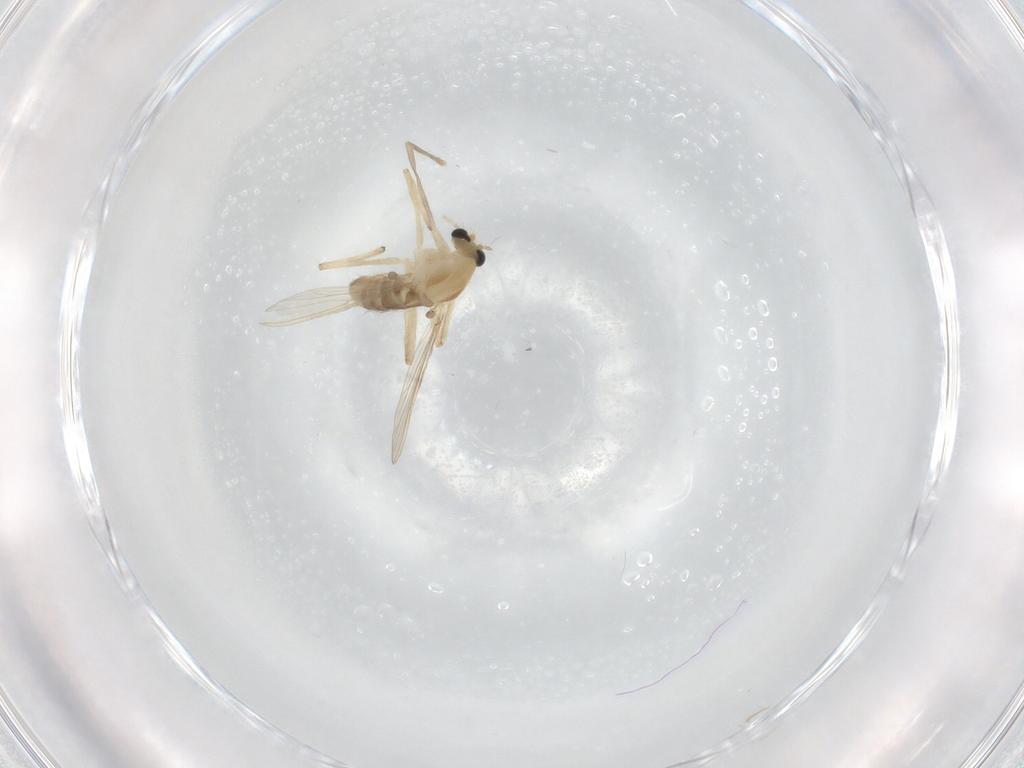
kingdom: Animalia
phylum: Arthropoda
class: Insecta
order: Diptera
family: Chironomidae
